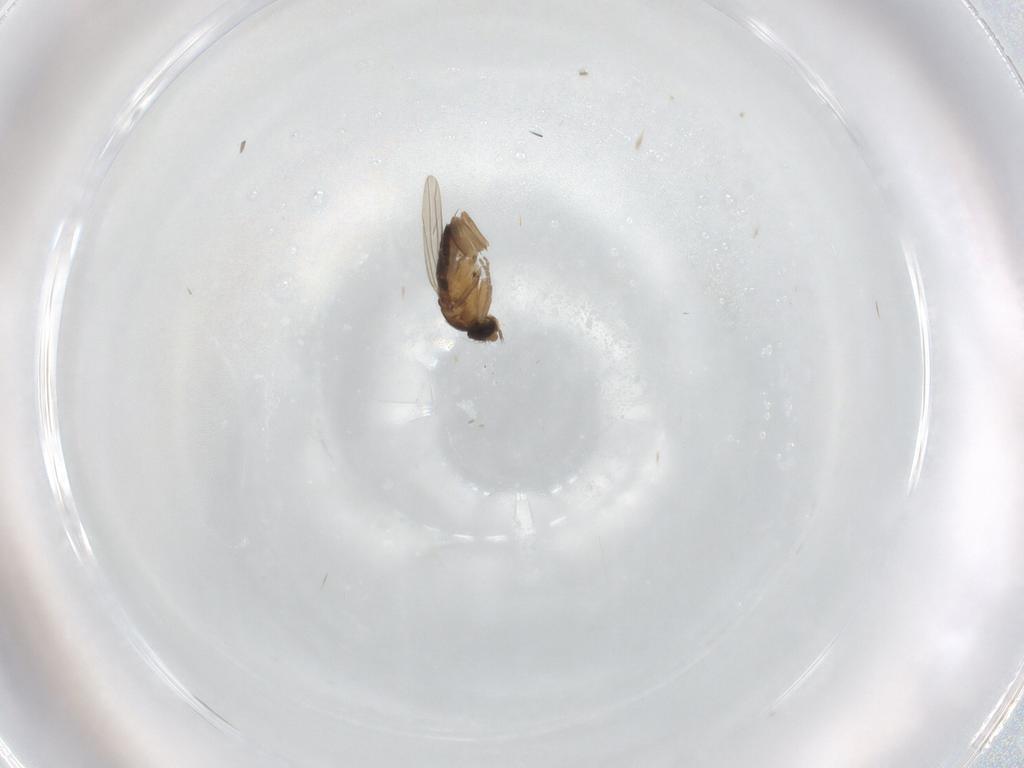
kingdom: Animalia
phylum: Arthropoda
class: Insecta
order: Diptera
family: Phoridae
